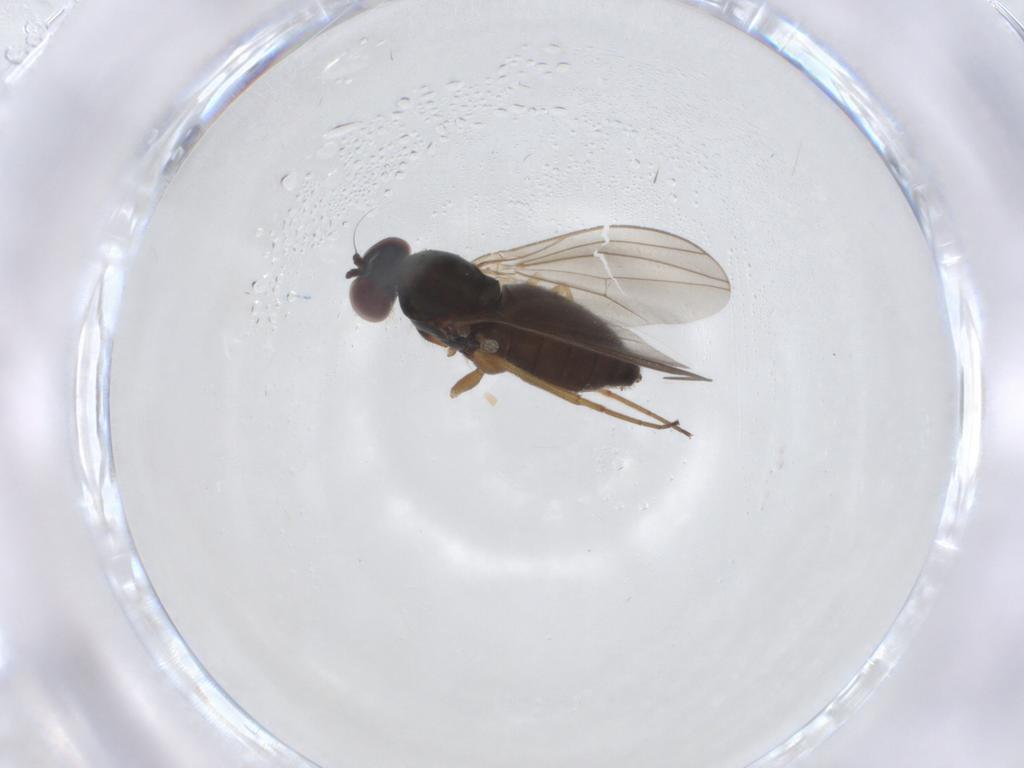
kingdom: Animalia
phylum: Arthropoda
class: Insecta
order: Diptera
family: Dolichopodidae
